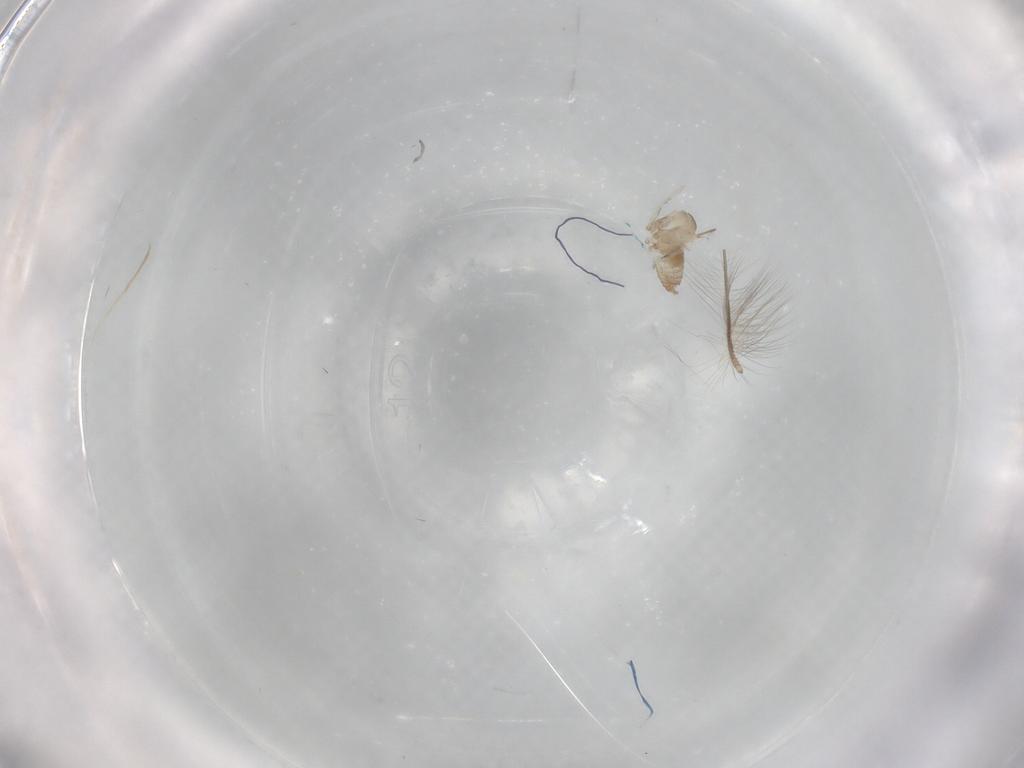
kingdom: Animalia
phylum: Arthropoda
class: Insecta
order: Diptera
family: Chironomidae
